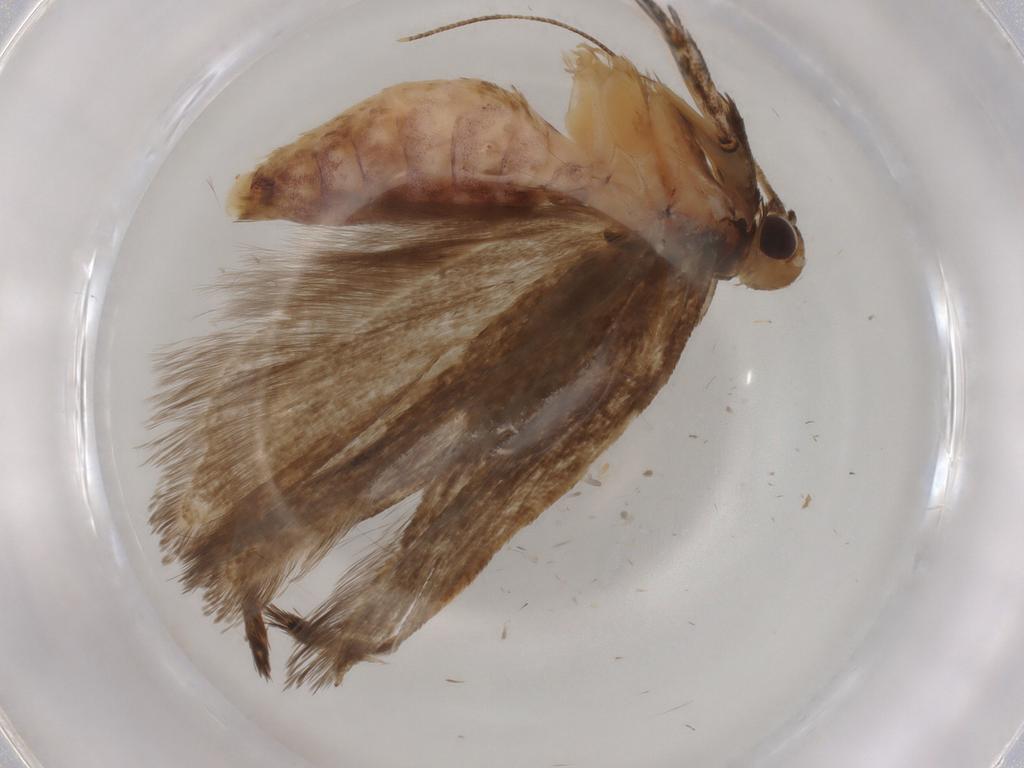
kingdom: Animalia
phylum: Arthropoda
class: Insecta
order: Lepidoptera
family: Gelechiidae
